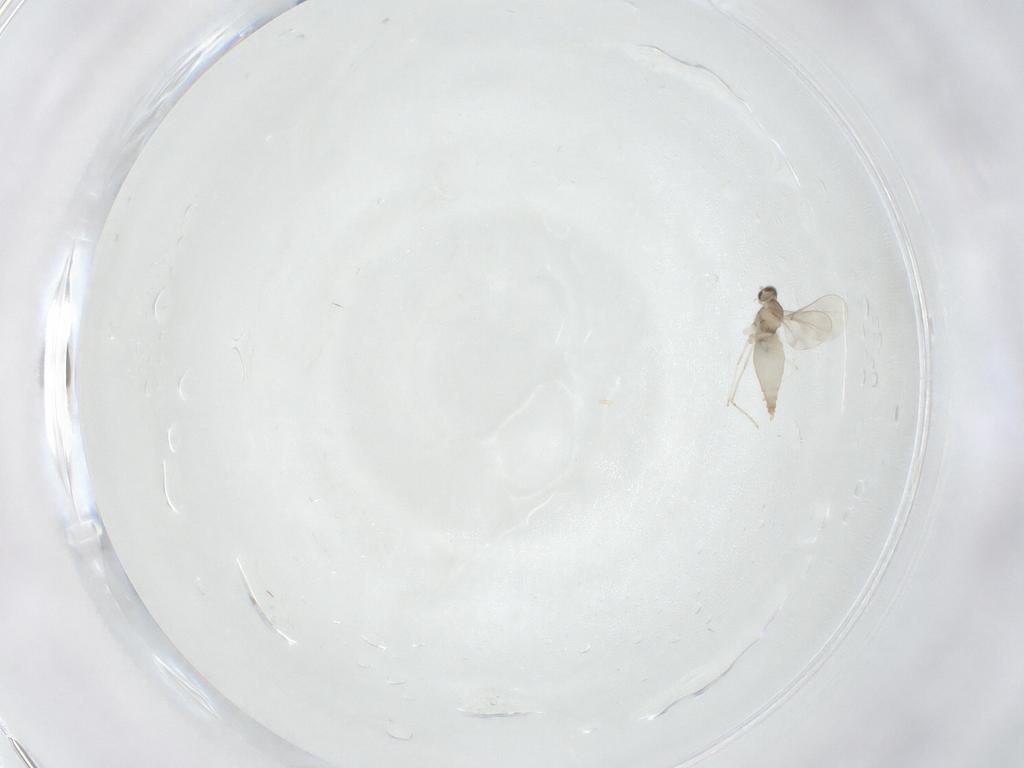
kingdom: Animalia
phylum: Arthropoda
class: Insecta
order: Diptera
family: Cecidomyiidae
